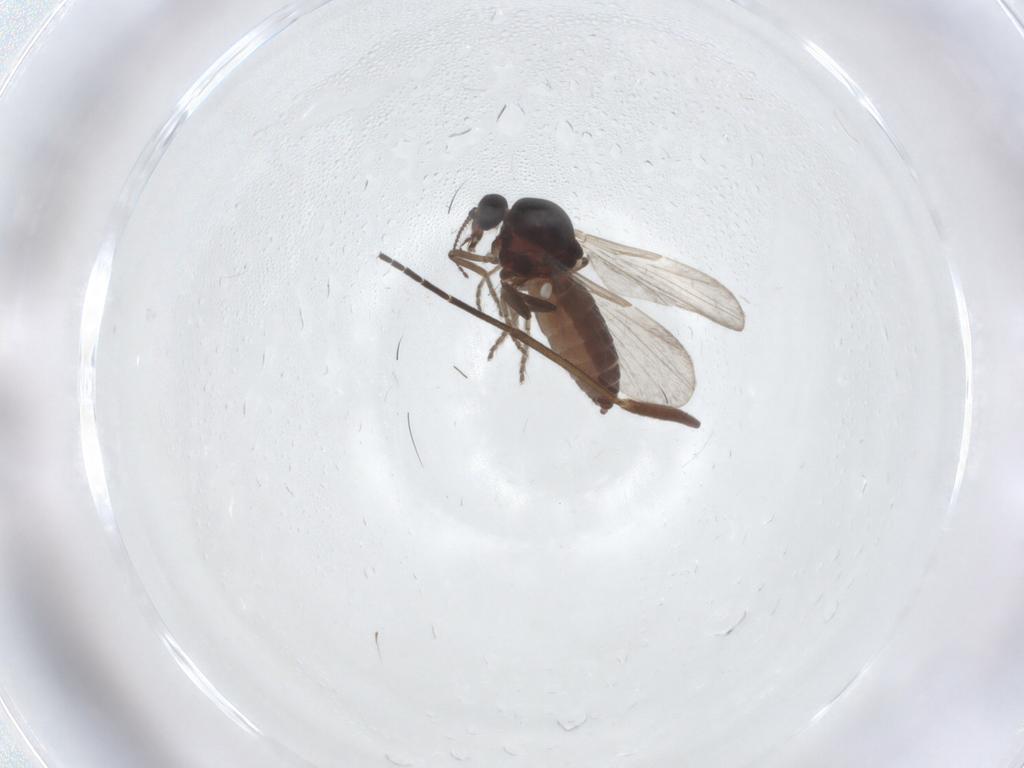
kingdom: Animalia
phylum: Arthropoda
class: Insecta
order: Diptera
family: Ceratopogonidae
